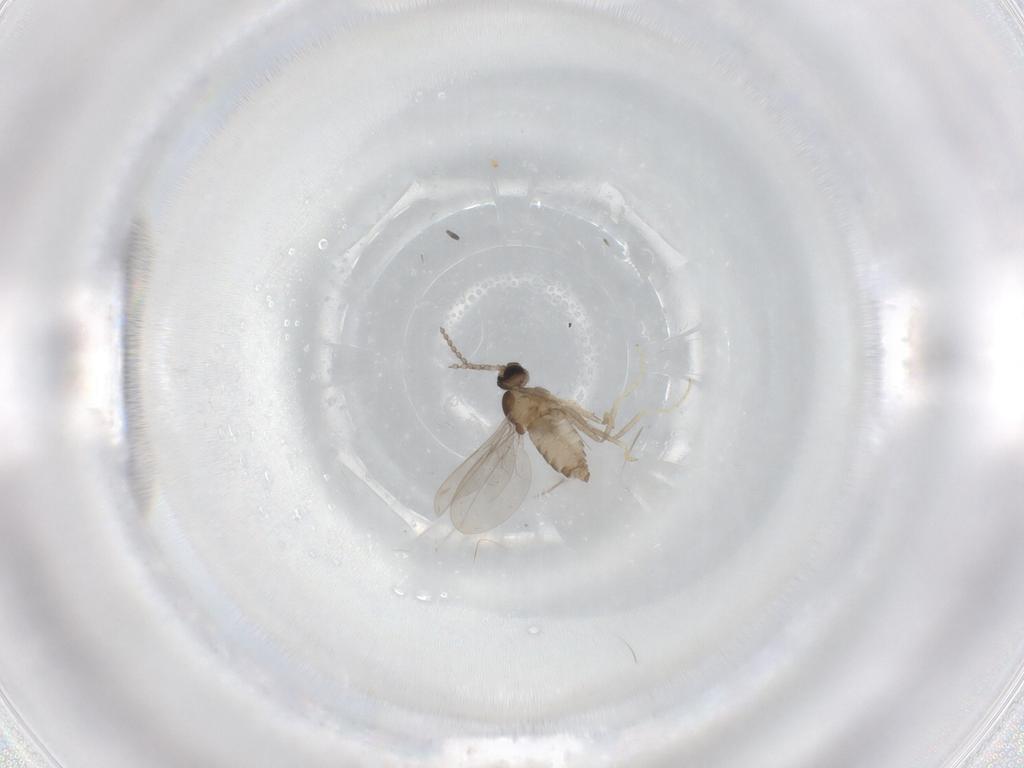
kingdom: Animalia
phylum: Arthropoda
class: Insecta
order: Diptera
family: Cecidomyiidae
